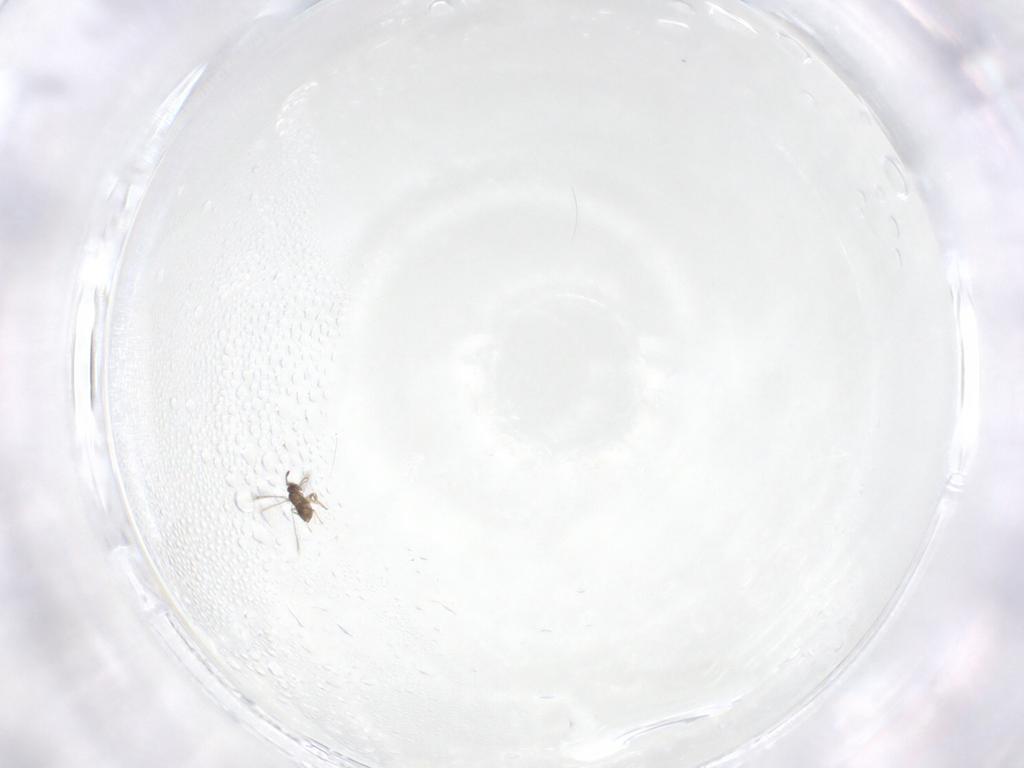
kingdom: Animalia
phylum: Arthropoda
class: Insecta
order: Hymenoptera
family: Mymaridae
